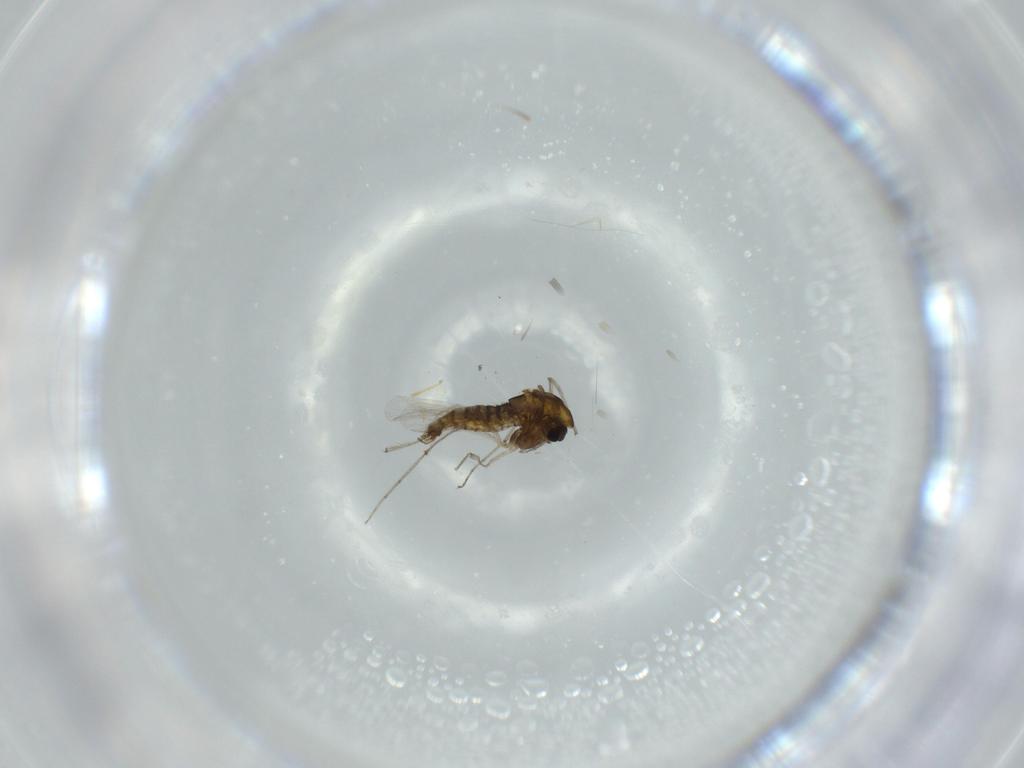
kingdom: Animalia
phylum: Arthropoda
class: Insecta
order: Diptera
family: Chironomidae
